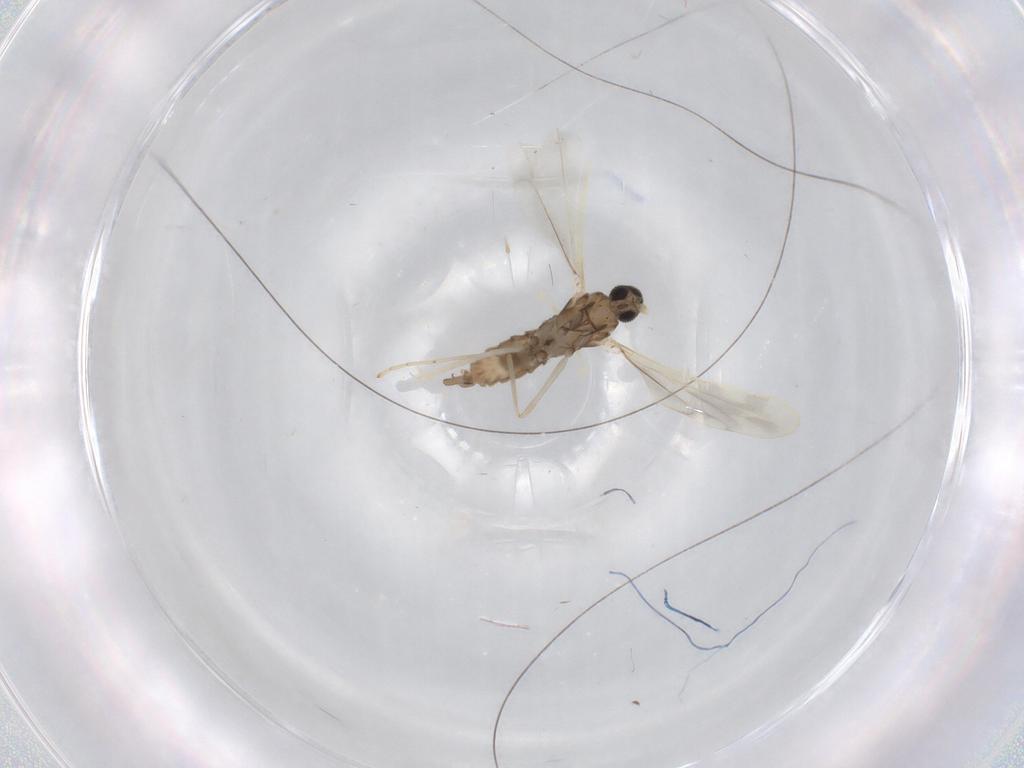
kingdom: Animalia
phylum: Arthropoda
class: Insecta
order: Diptera
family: Cecidomyiidae
